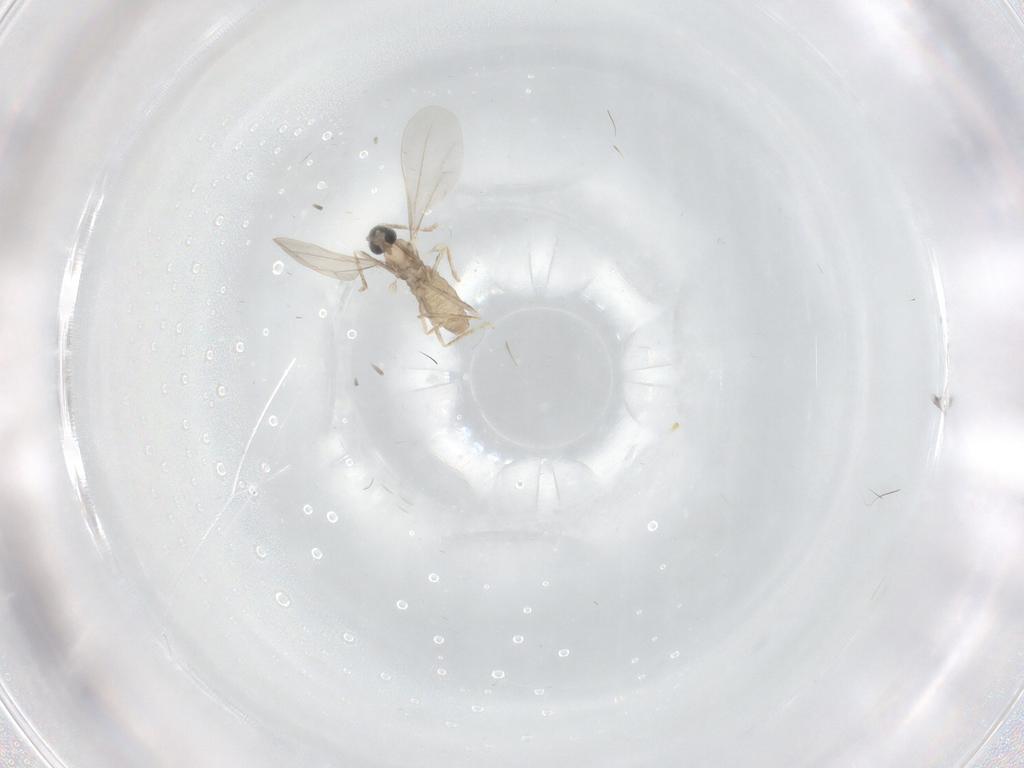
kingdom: Animalia
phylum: Arthropoda
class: Insecta
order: Diptera
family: Cecidomyiidae
